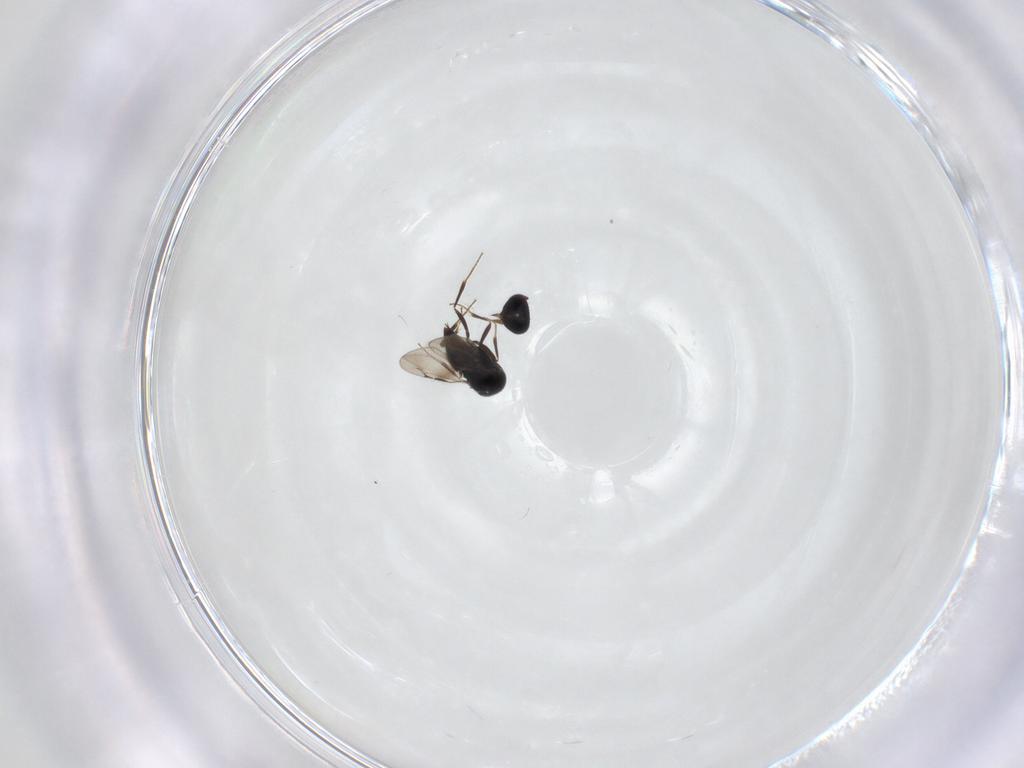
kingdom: Animalia
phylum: Arthropoda
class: Insecta
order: Hymenoptera
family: Eulophidae
